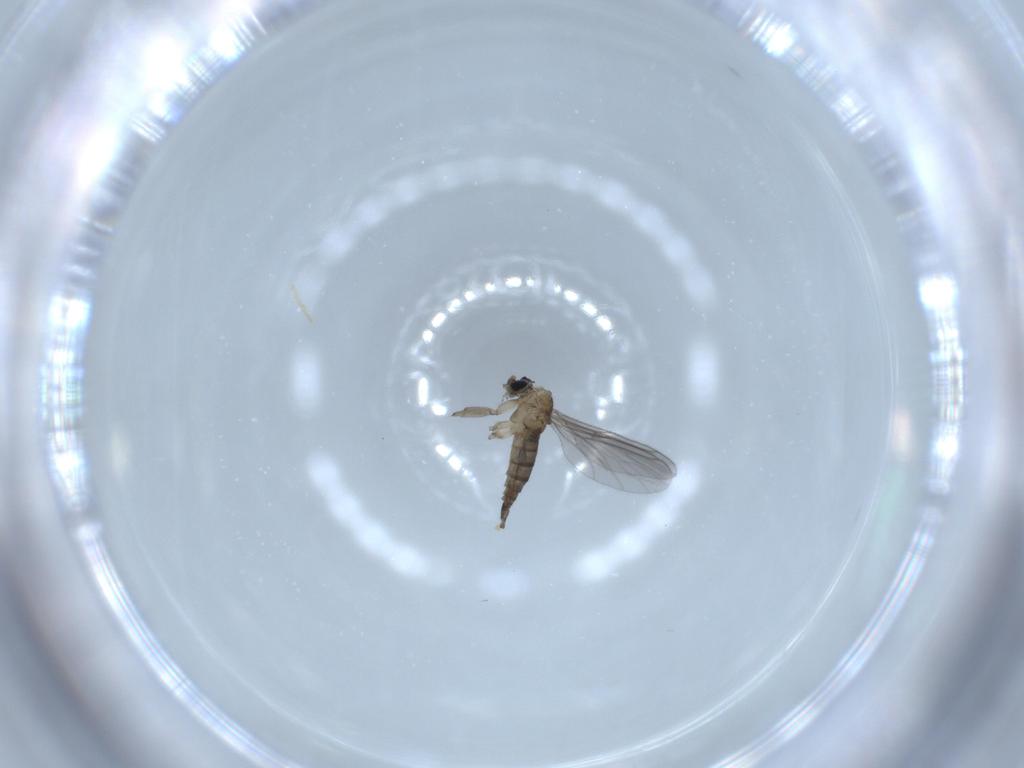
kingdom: Animalia
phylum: Arthropoda
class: Insecta
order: Diptera
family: Sciaridae
